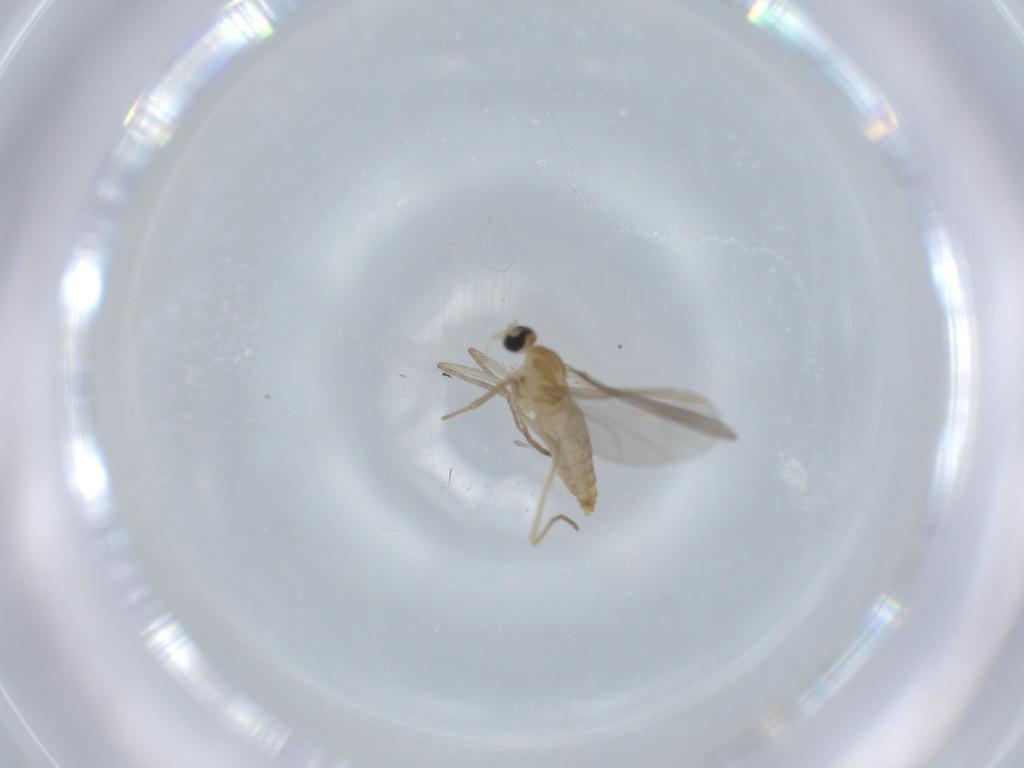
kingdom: Animalia
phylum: Arthropoda
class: Insecta
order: Diptera
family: Cecidomyiidae
